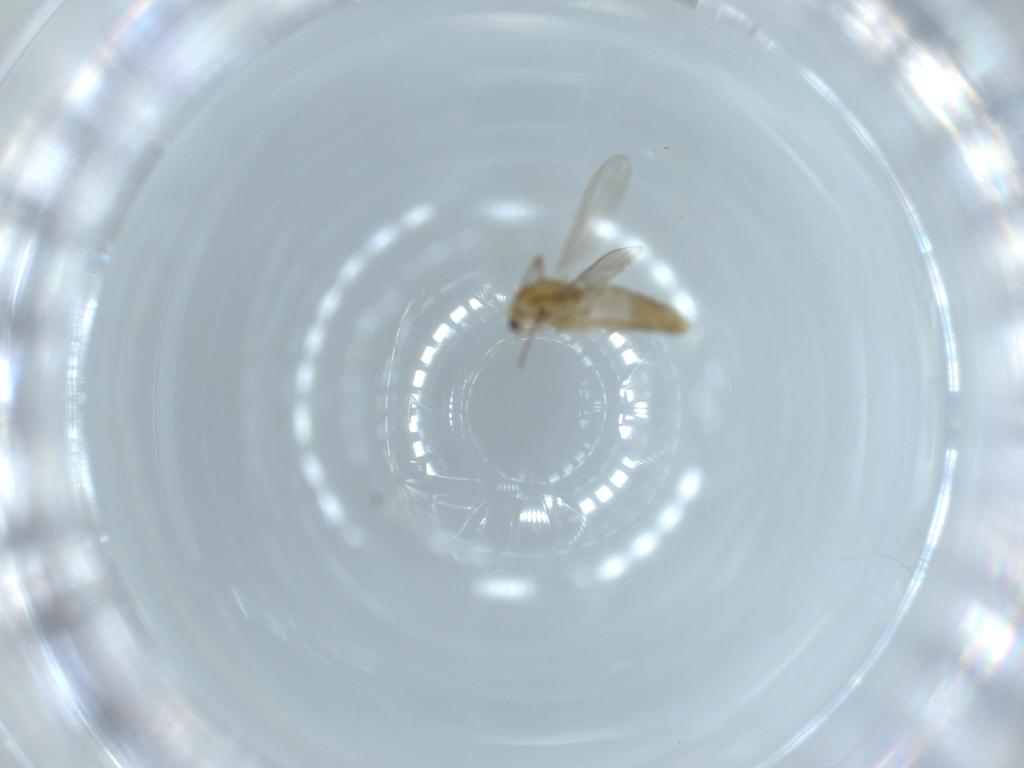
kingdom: Animalia
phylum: Arthropoda
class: Insecta
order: Diptera
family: Chironomidae
